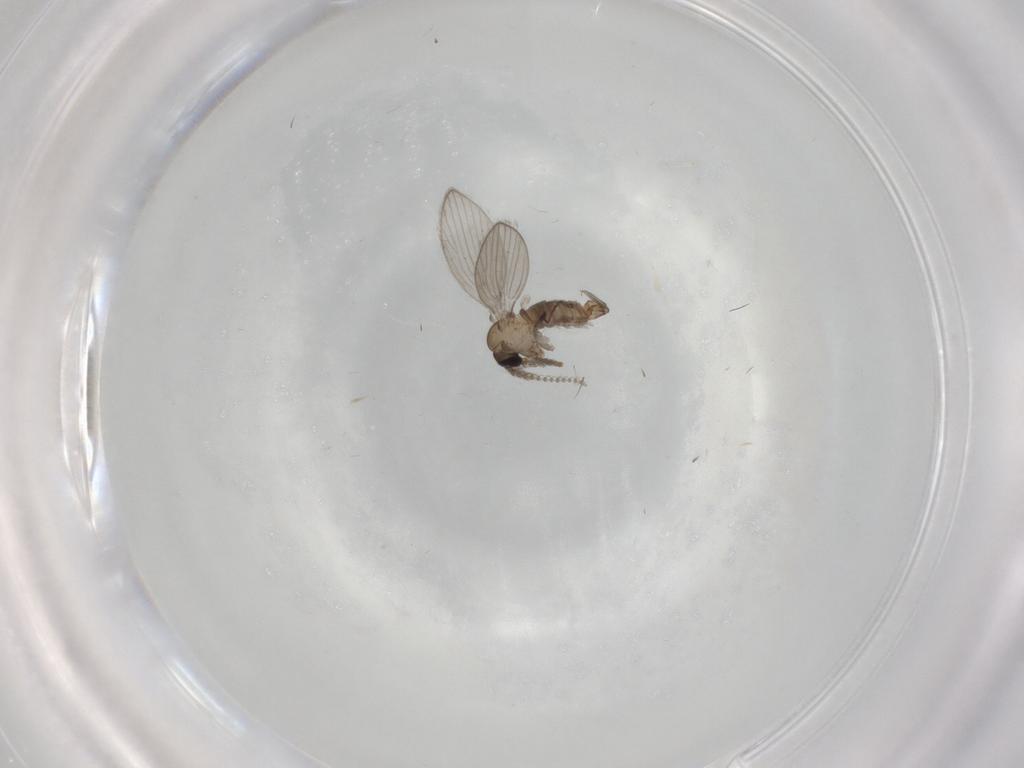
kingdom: Animalia
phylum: Arthropoda
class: Insecta
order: Diptera
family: Psychodidae
